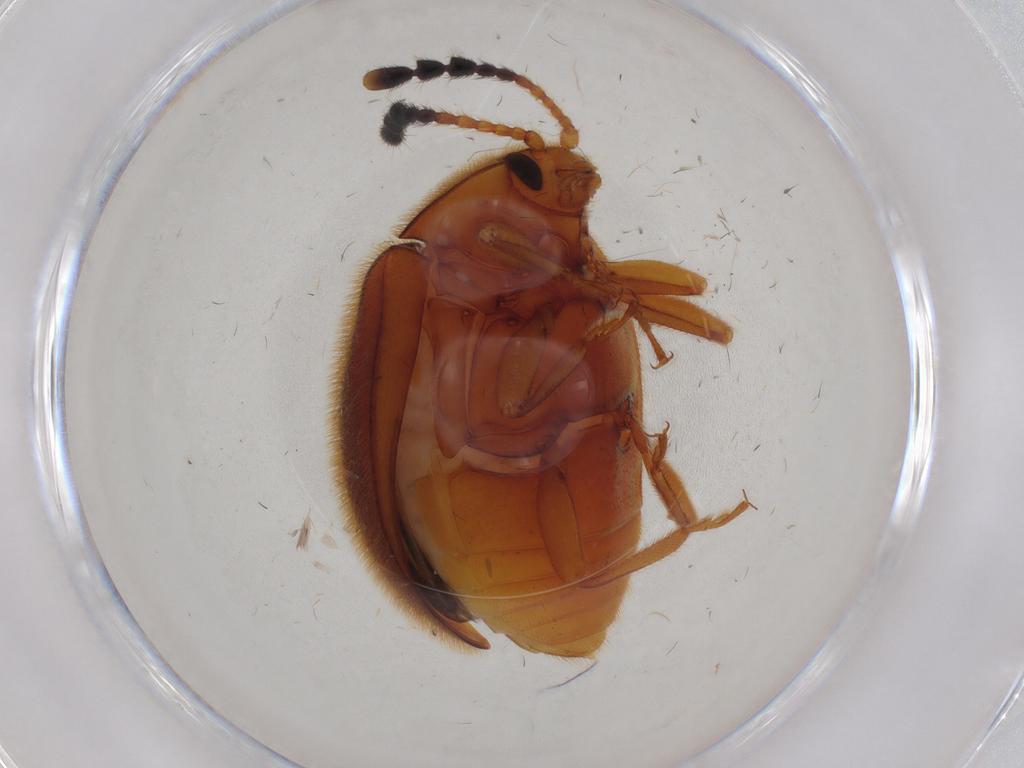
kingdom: Animalia
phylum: Arthropoda
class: Insecta
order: Coleoptera
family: Endomychidae
